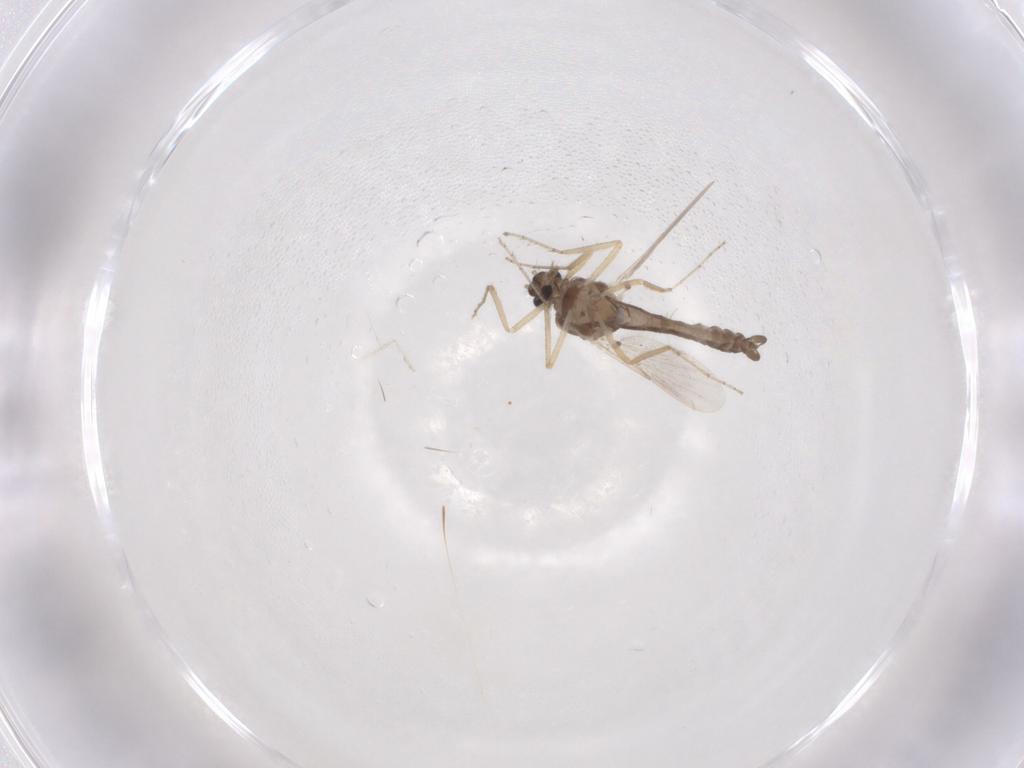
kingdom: Animalia
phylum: Arthropoda
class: Insecta
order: Diptera
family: Ceratopogonidae
